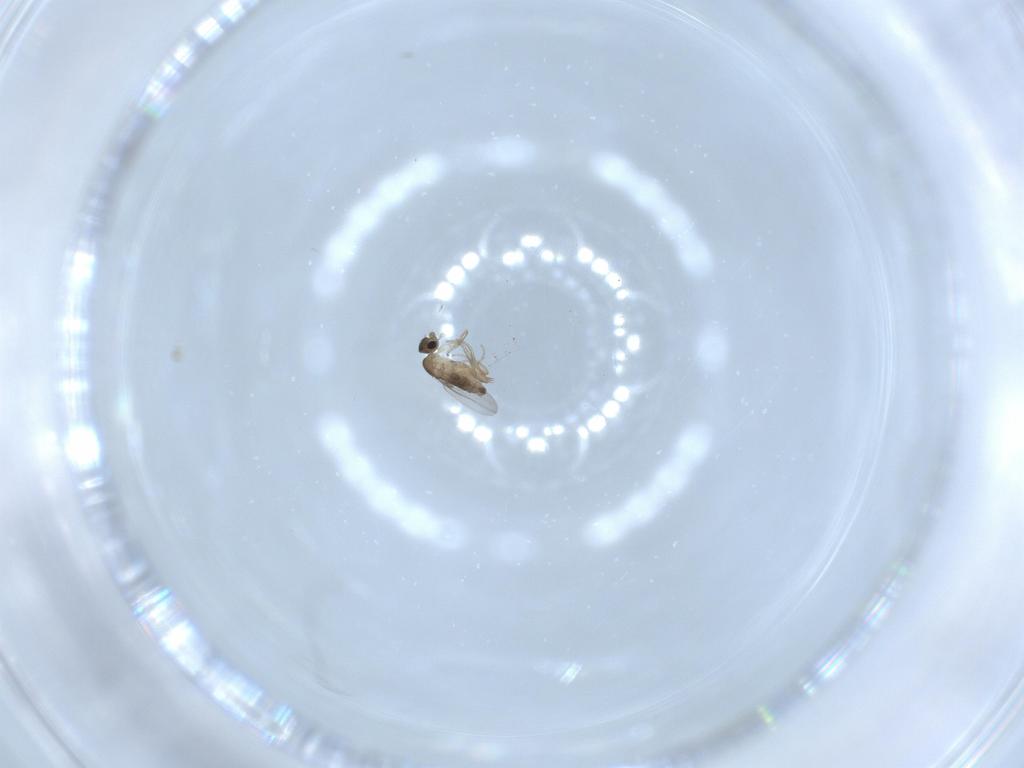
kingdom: Animalia
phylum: Arthropoda
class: Insecta
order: Diptera
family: Phoridae
